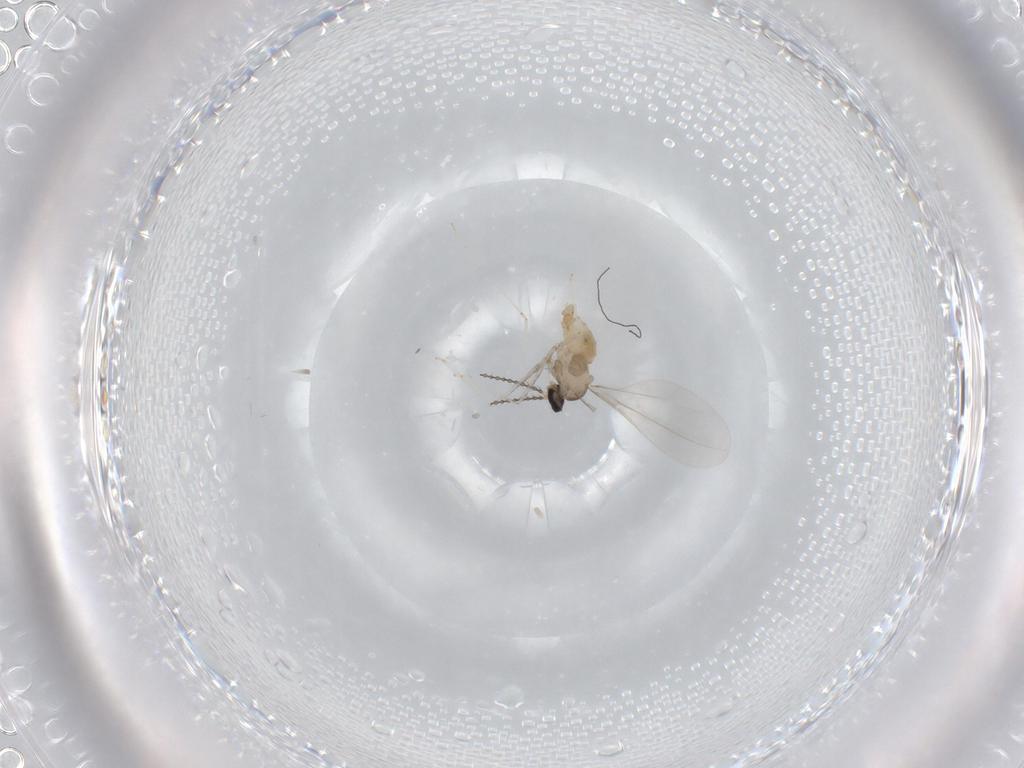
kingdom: Animalia
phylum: Arthropoda
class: Insecta
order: Diptera
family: Cecidomyiidae
